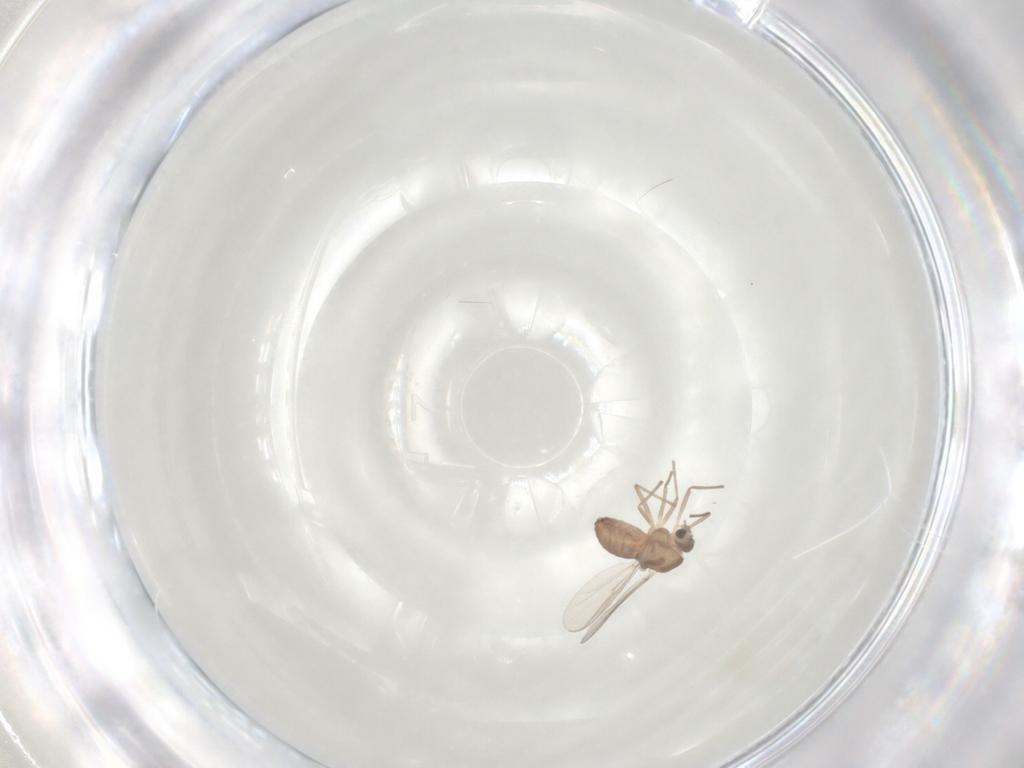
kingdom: Animalia
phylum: Arthropoda
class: Insecta
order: Diptera
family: Chironomidae
